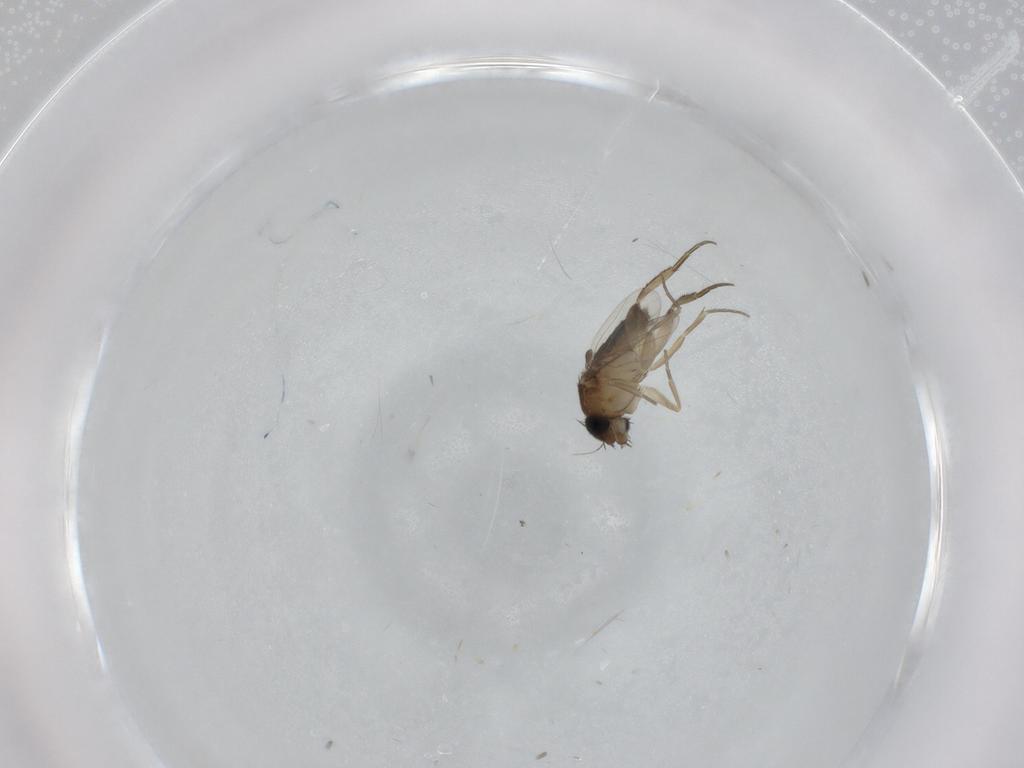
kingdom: Animalia
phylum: Arthropoda
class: Insecta
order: Diptera
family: Phoridae
